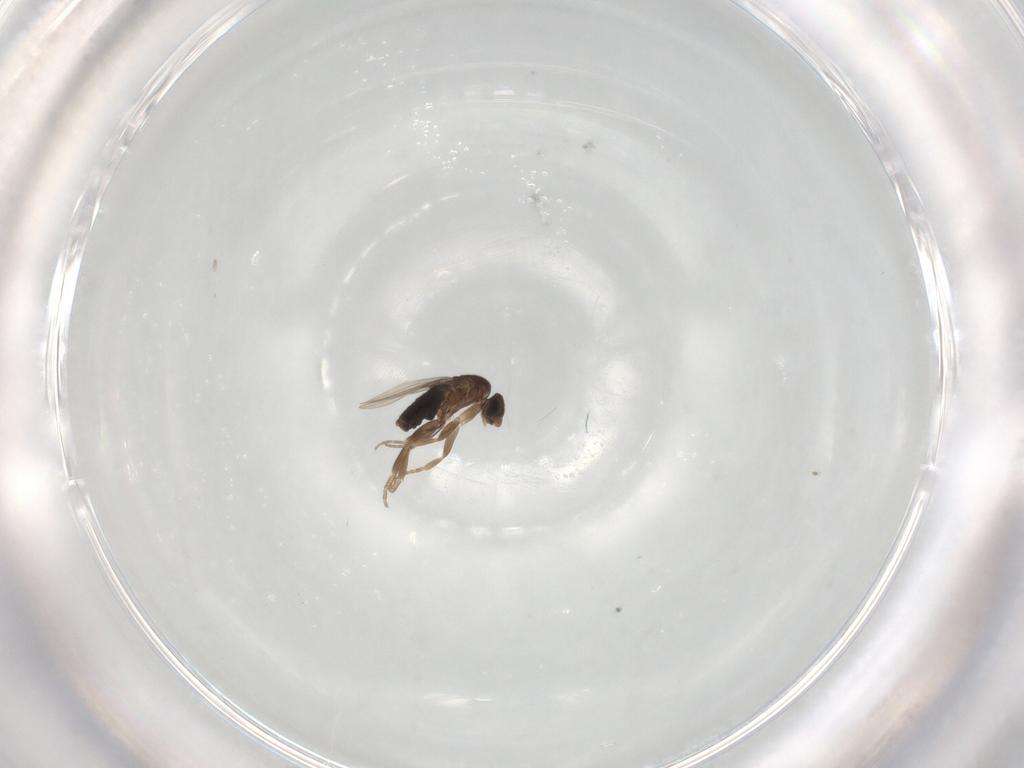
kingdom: Animalia
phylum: Arthropoda
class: Insecta
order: Diptera
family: Phoridae
